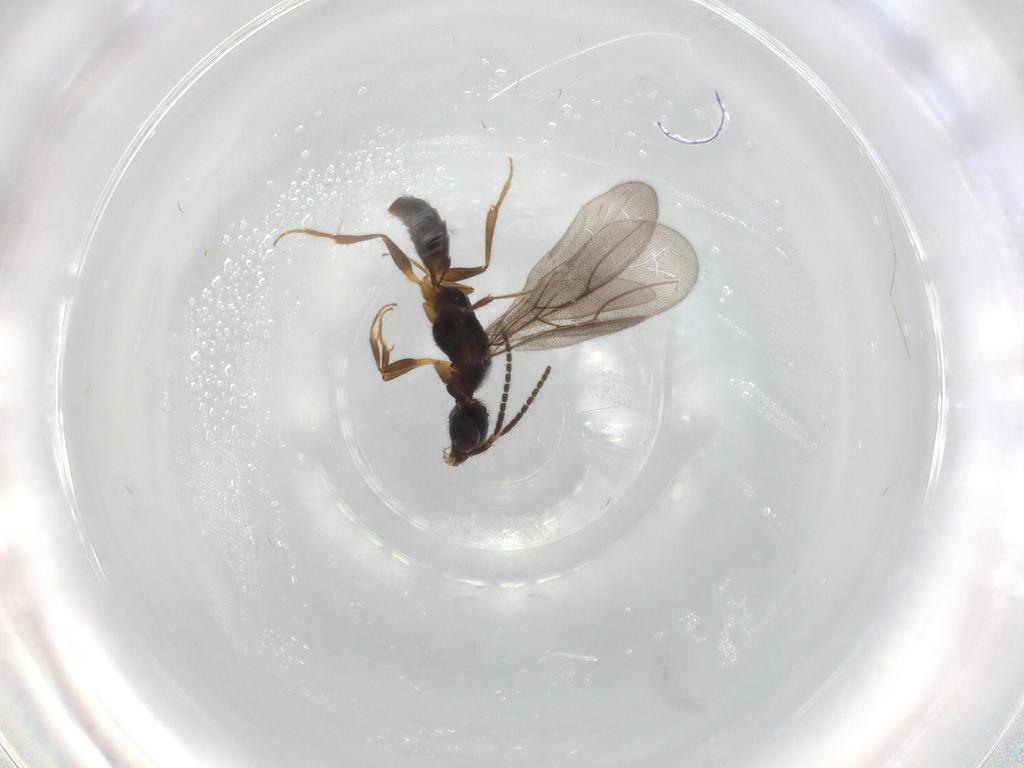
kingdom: Animalia
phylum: Arthropoda
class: Insecta
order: Hymenoptera
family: Bethylidae
